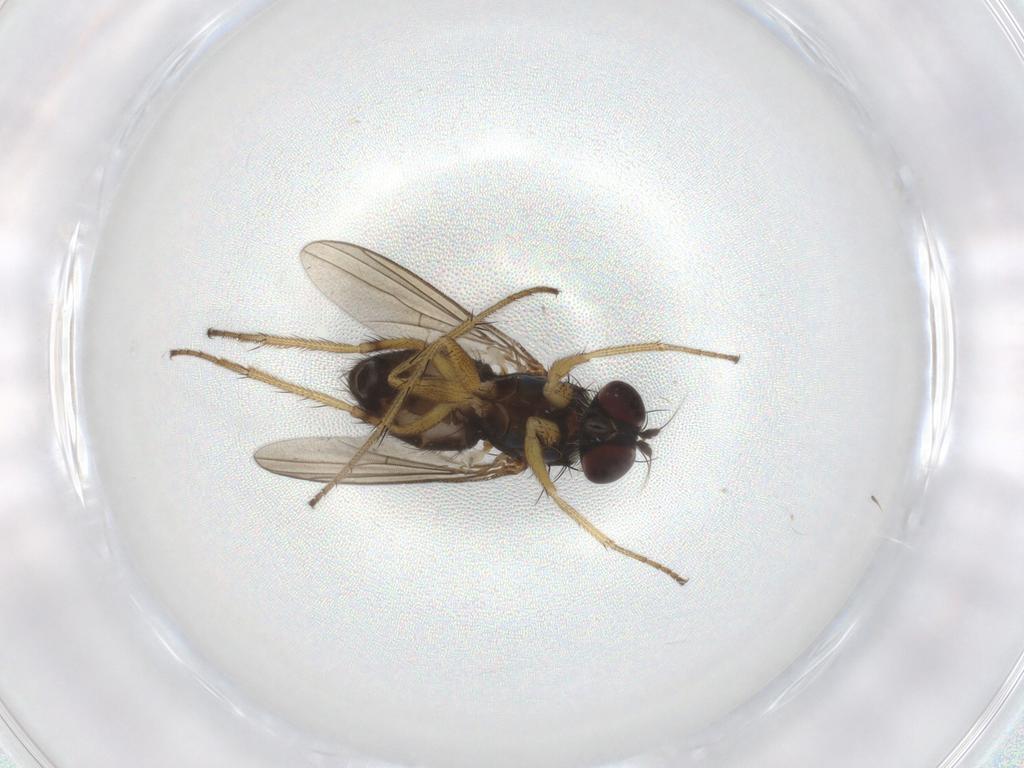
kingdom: Animalia
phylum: Arthropoda
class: Insecta
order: Diptera
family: Dolichopodidae
